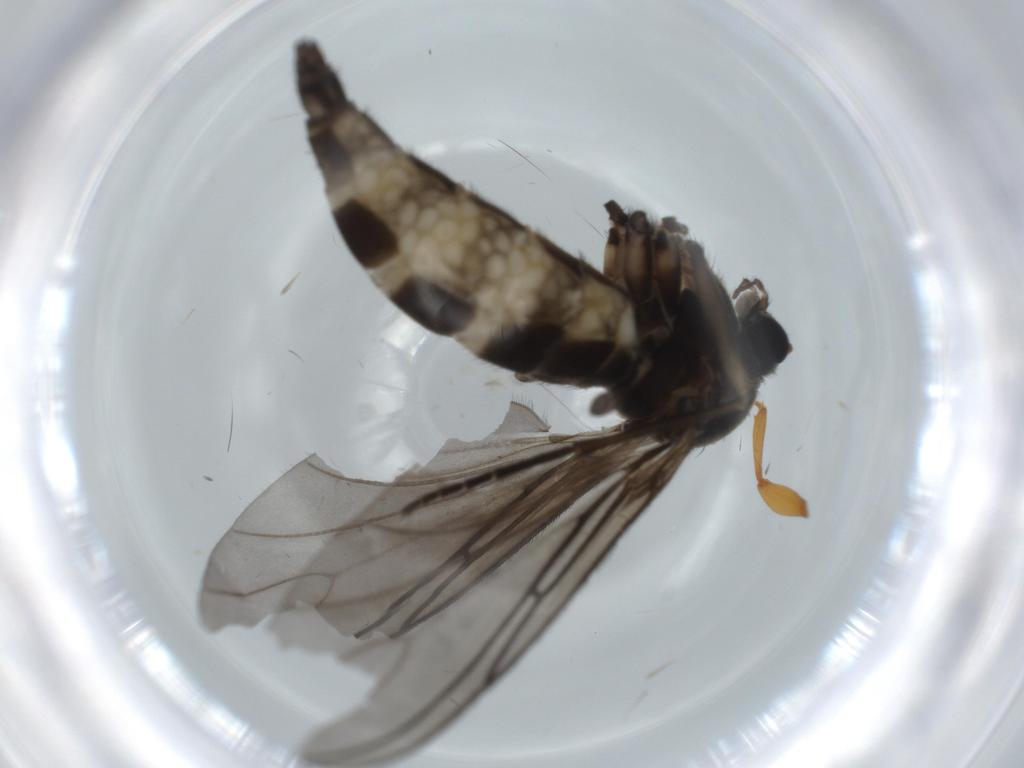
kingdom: Animalia
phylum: Arthropoda
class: Insecta
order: Diptera
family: Sciaridae
